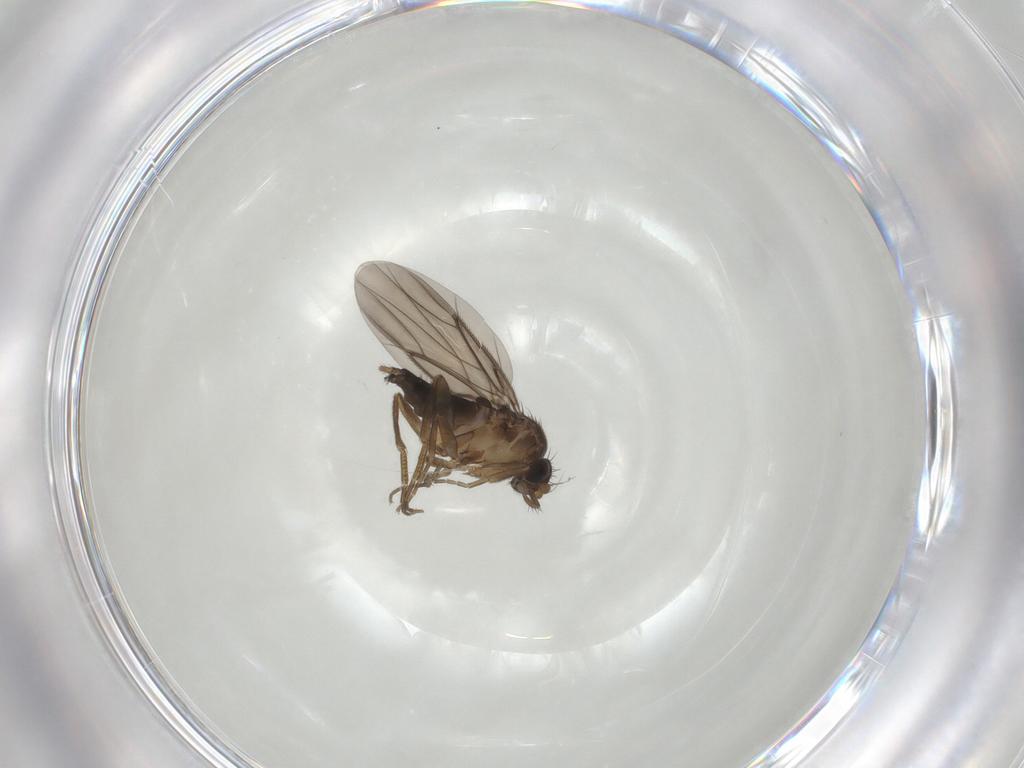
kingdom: Animalia
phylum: Arthropoda
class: Insecta
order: Diptera
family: Phoridae
